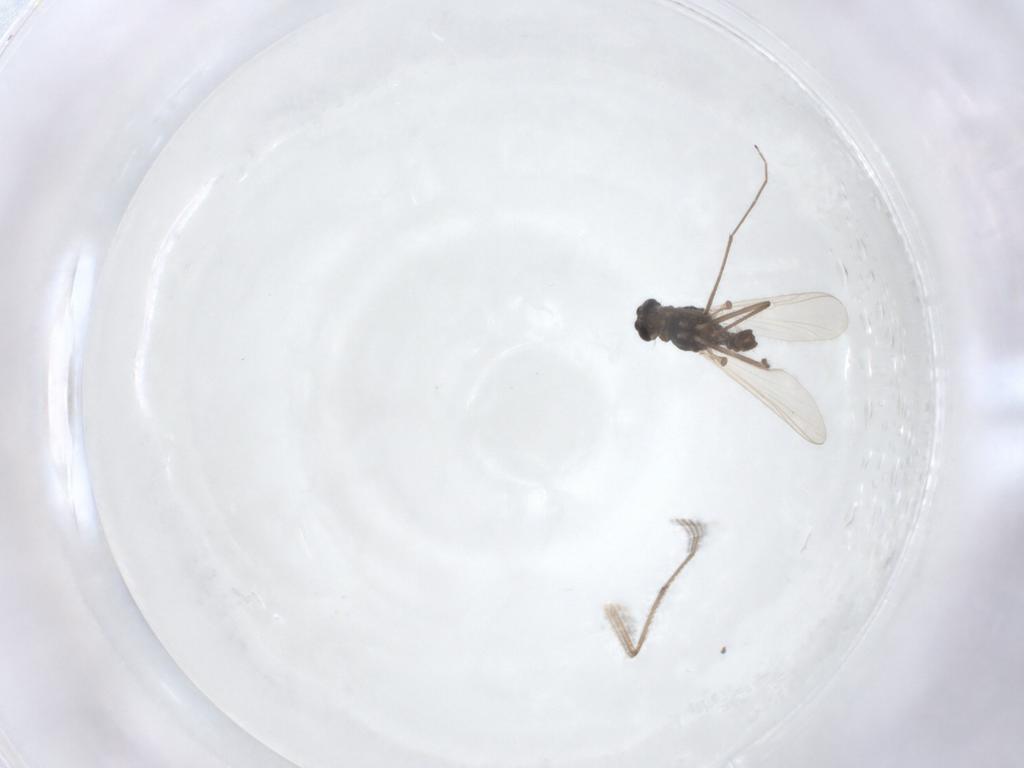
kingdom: Animalia
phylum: Arthropoda
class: Insecta
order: Diptera
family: Chironomidae
